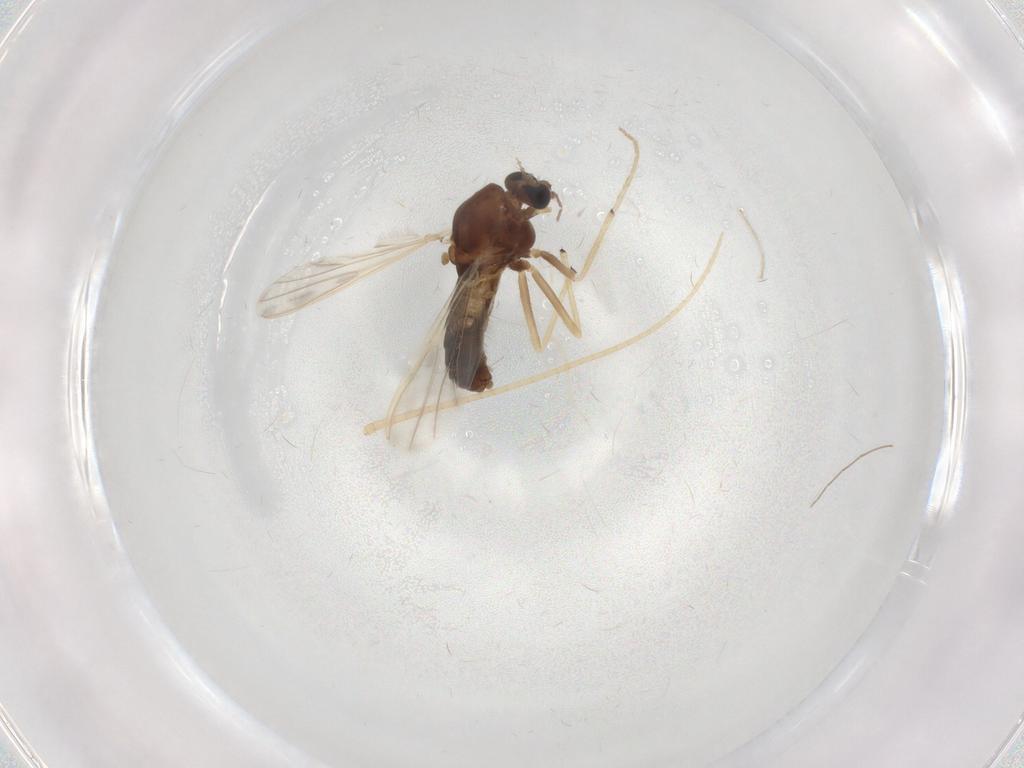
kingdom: Animalia
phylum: Arthropoda
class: Insecta
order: Diptera
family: Chironomidae
